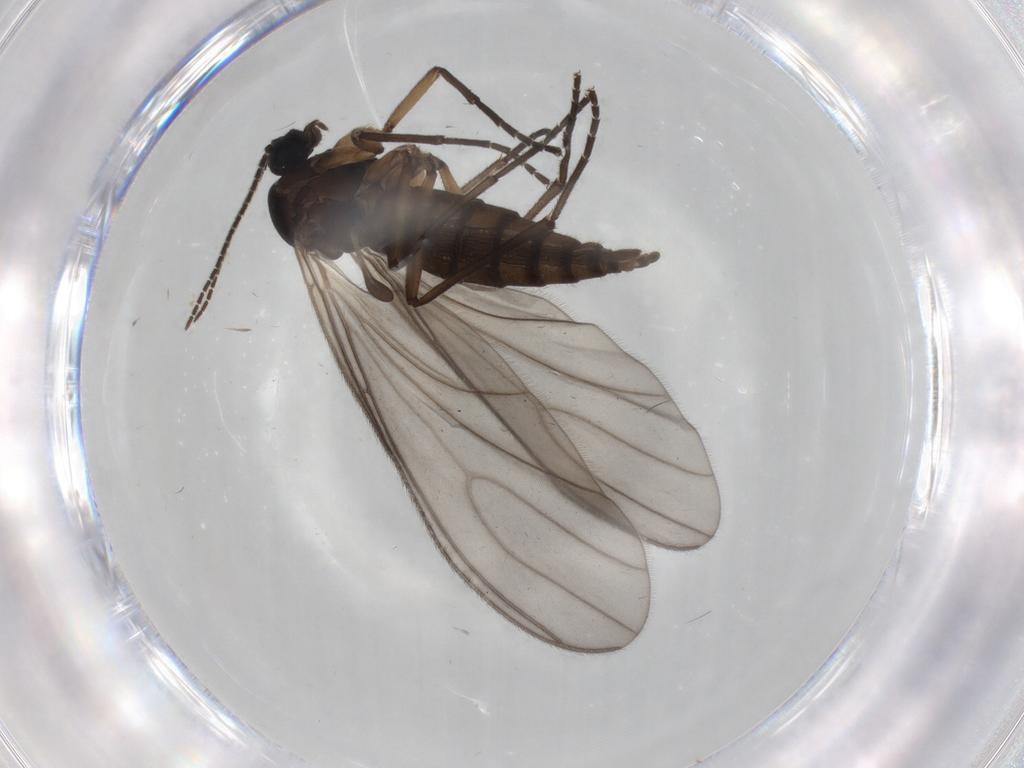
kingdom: Animalia
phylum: Arthropoda
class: Insecta
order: Diptera
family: Sciaridae
